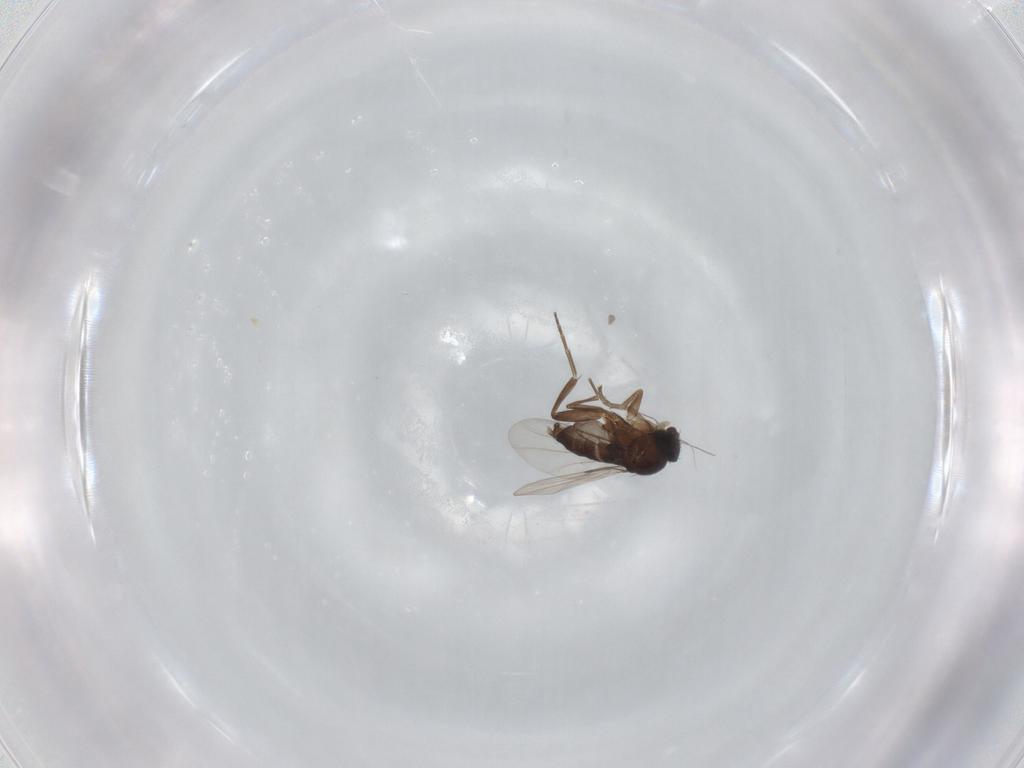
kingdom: Animalia
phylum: Arthropoda
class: Insecta
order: Diptera
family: Phoridae
